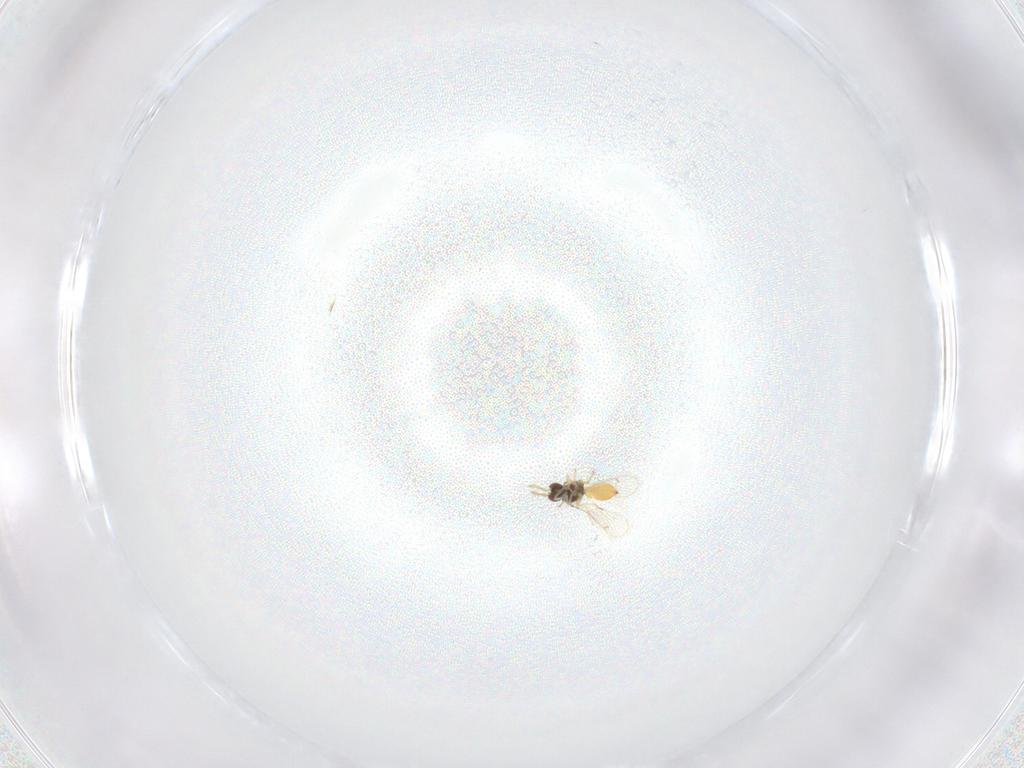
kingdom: Animalia
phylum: Arthropoda
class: Insecta
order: Hymenoptera
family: Eulophidae
